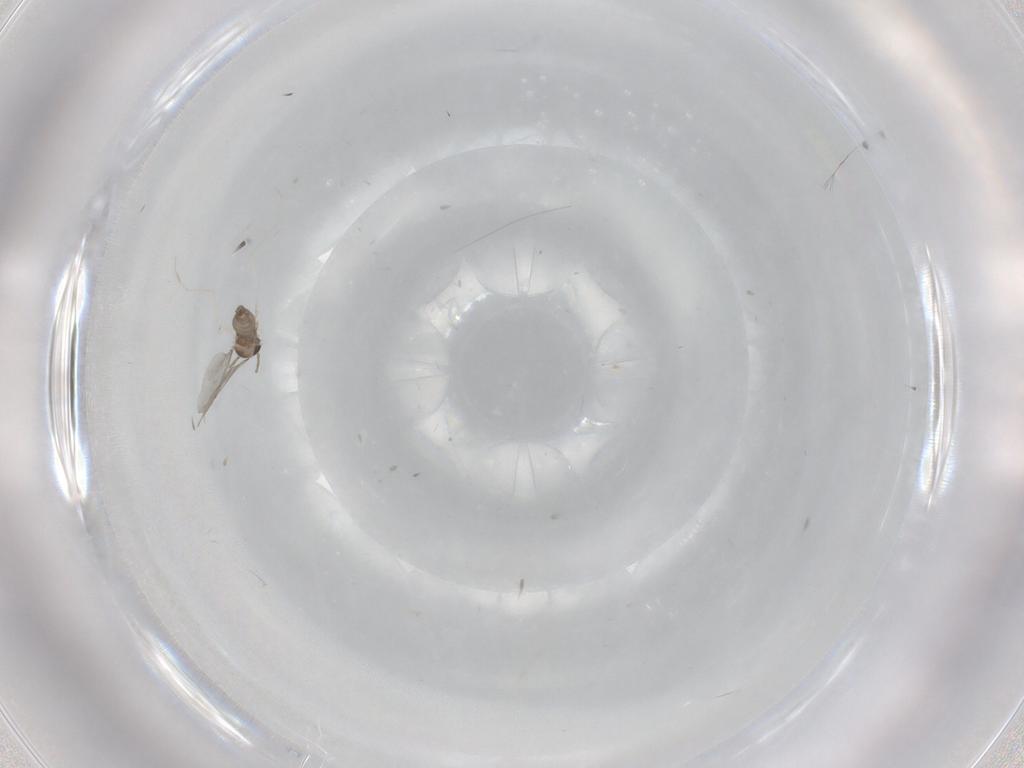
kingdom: Animalia
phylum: Arthropoda
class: Insecta
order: Diptera
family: Cecidomyiidae
